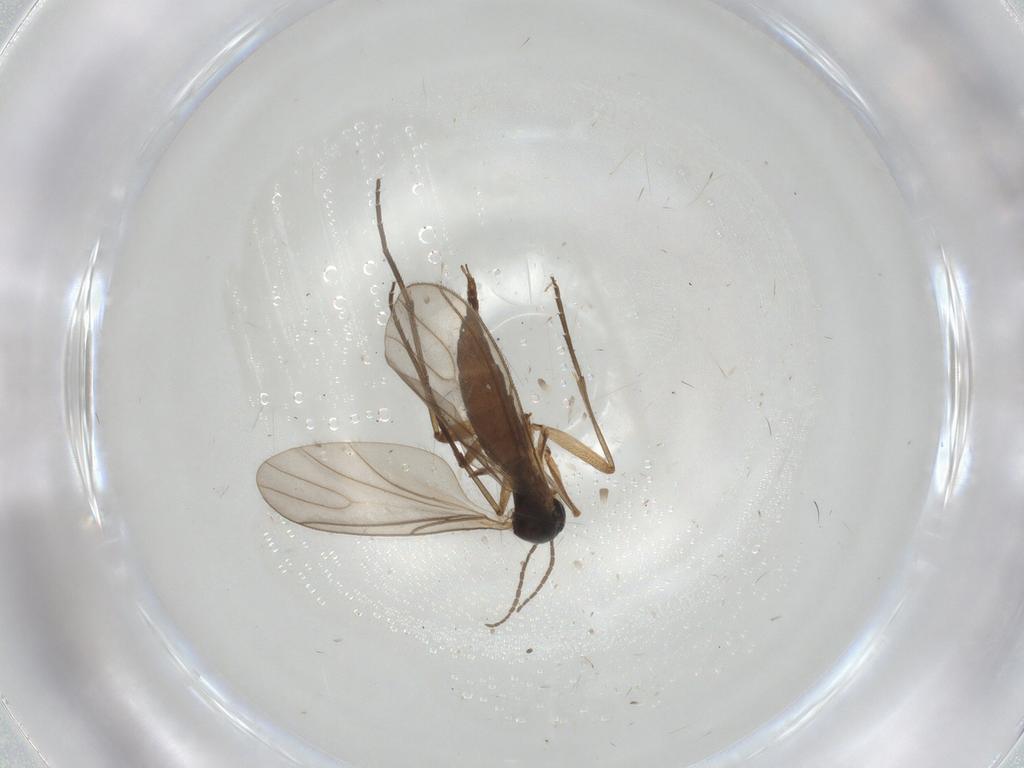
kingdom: Animalia
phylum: Arthropoda
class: Insecta
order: Diptera
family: Sciaridae
